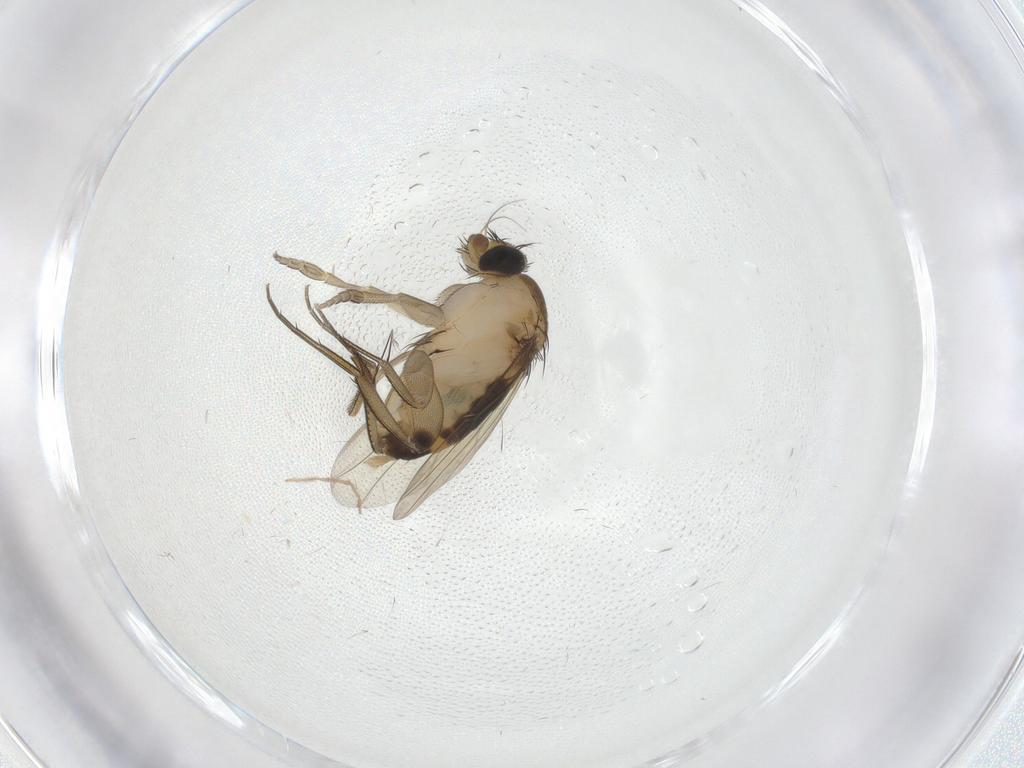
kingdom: Animalia
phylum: Arthropoda
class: Insecta
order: Diptera
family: Phoridae
